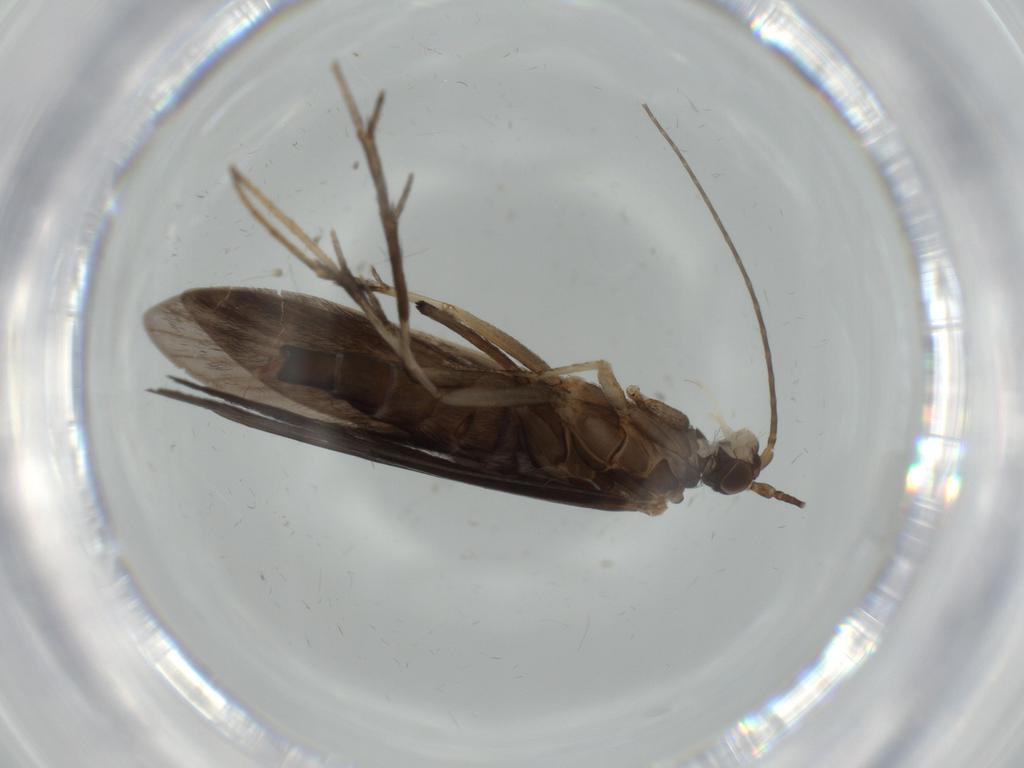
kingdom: Animalia
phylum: Arthropoda
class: Insecta
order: Trichoptera
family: Xiphocentronidae
